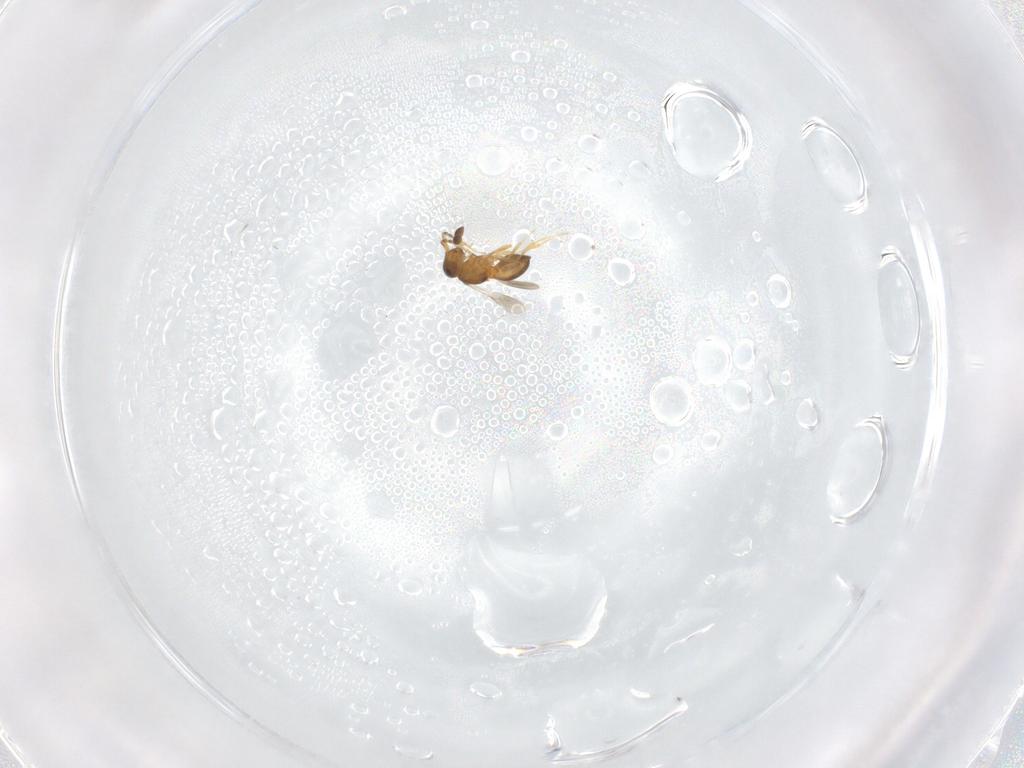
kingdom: Animalia
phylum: Arthropoda
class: Insecta
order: Hymenoptera
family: Scelionidae
